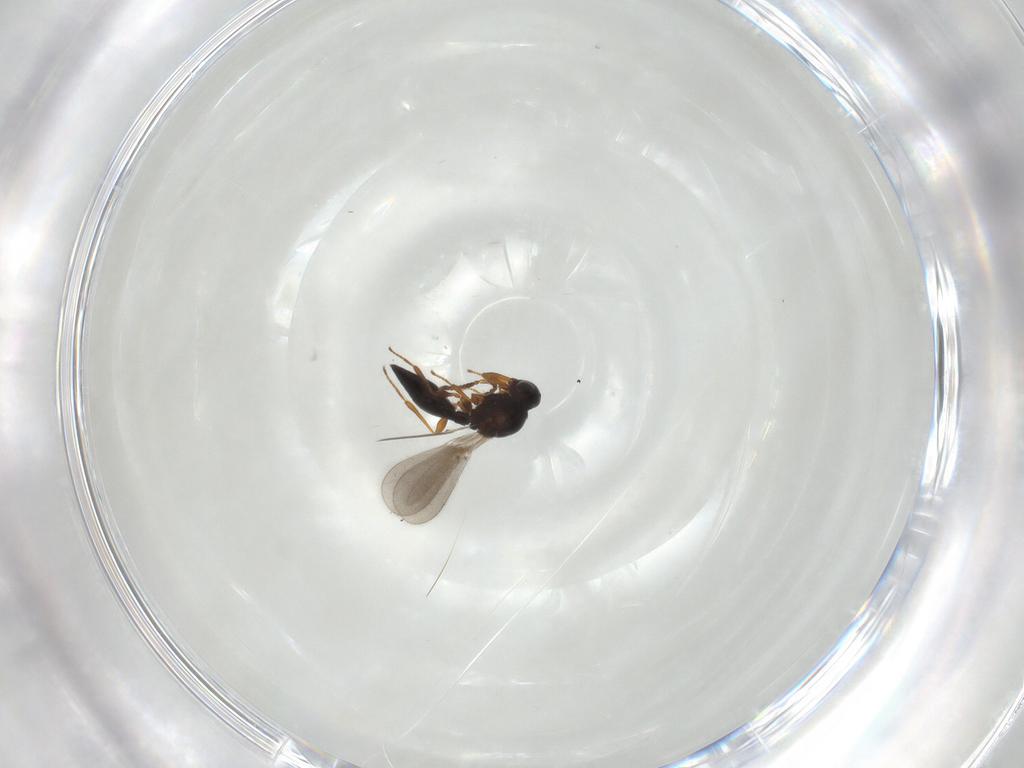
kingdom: Animalia
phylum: Arthropoda
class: Insecta
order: Hymenoptera
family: Platygastridae
